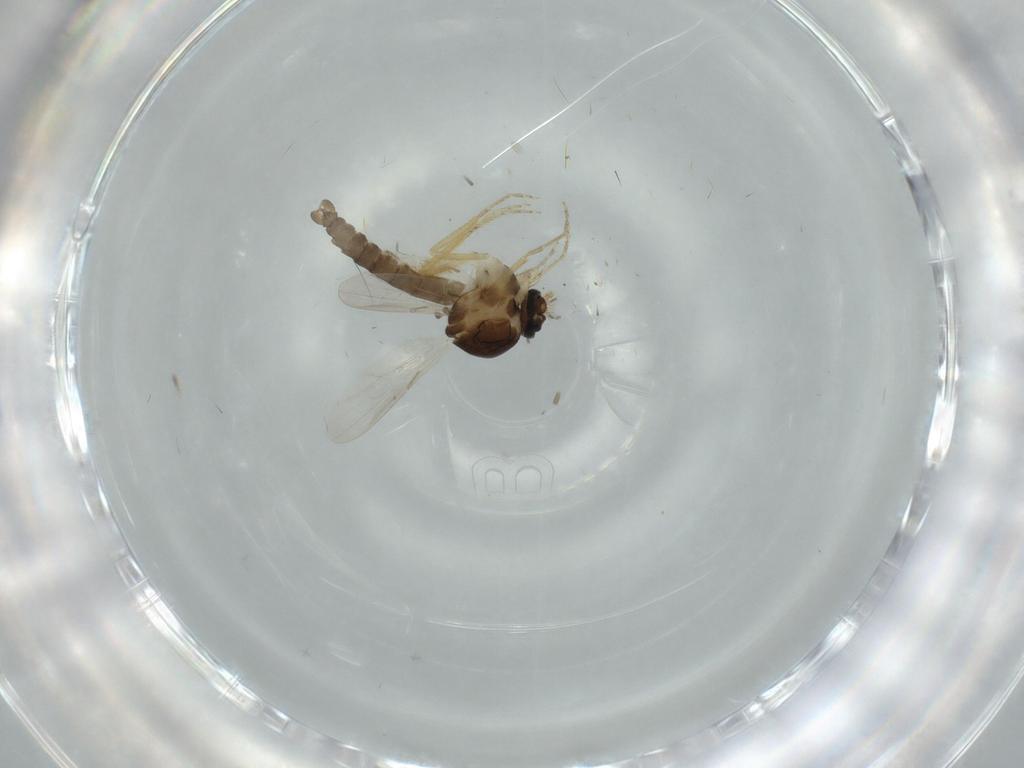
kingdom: Animalia
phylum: Arthropoda
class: Insecta
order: Diptera
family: Ceratopogonidae
